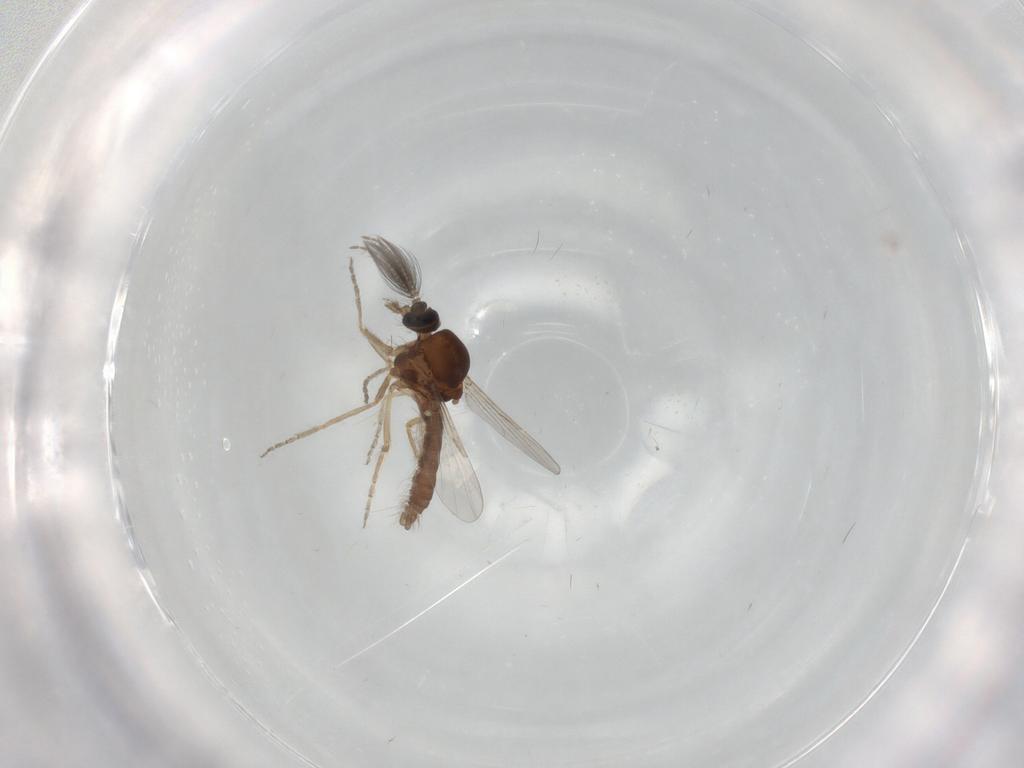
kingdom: Animalia
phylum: Arthropoda
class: Insecta
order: Diptera
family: Ceratopogonidae
